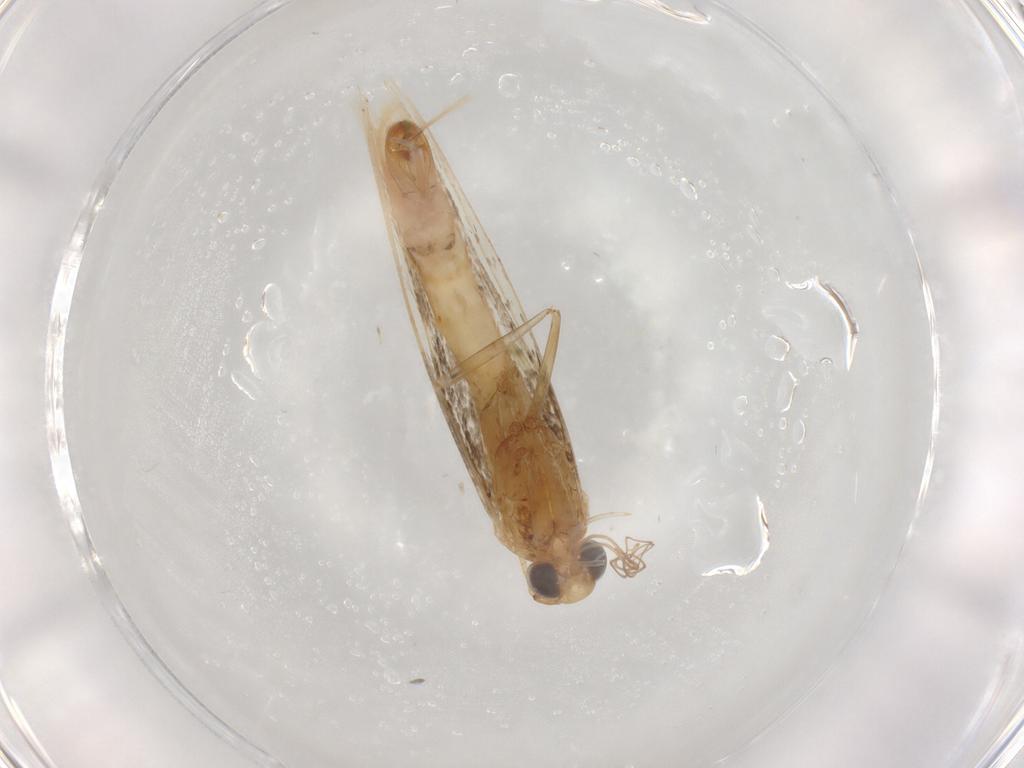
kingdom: Animalia
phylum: Arthropoda
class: Insecta
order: Lepidoptera
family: Gracillariidae
